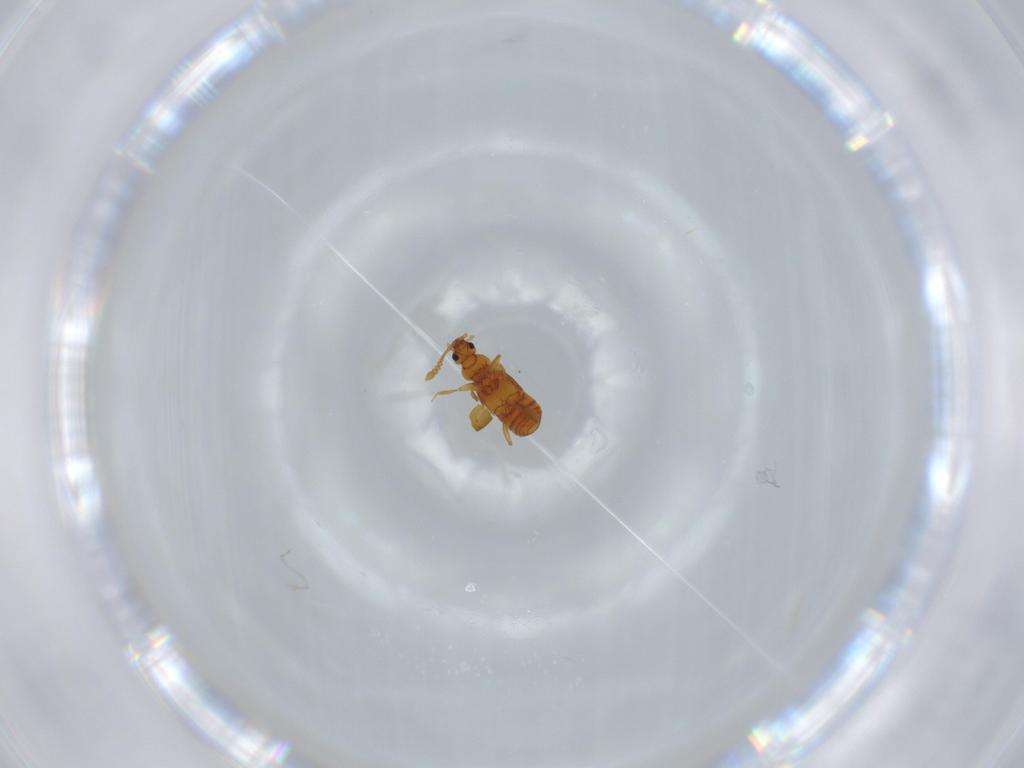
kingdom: Animalia
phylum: Arthropoda
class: Insecta
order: Coleoptera
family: Staphylinidae
